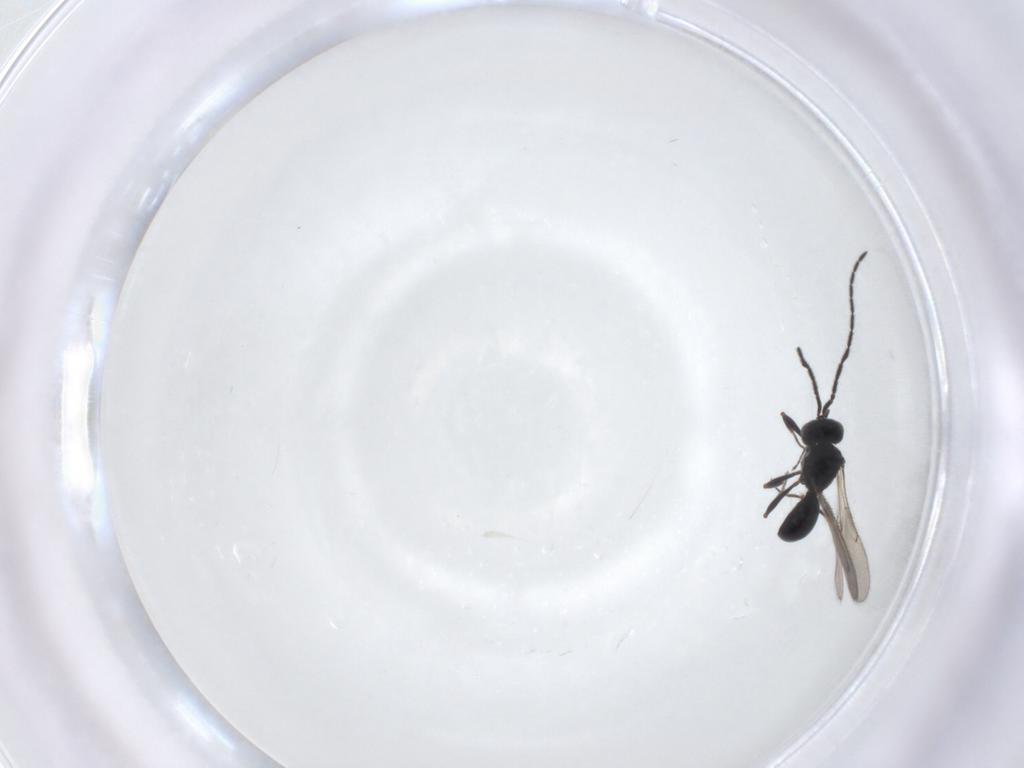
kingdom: Animalia
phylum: Arthropoda
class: Insecta
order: Hymenoptera
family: Scelionidae
